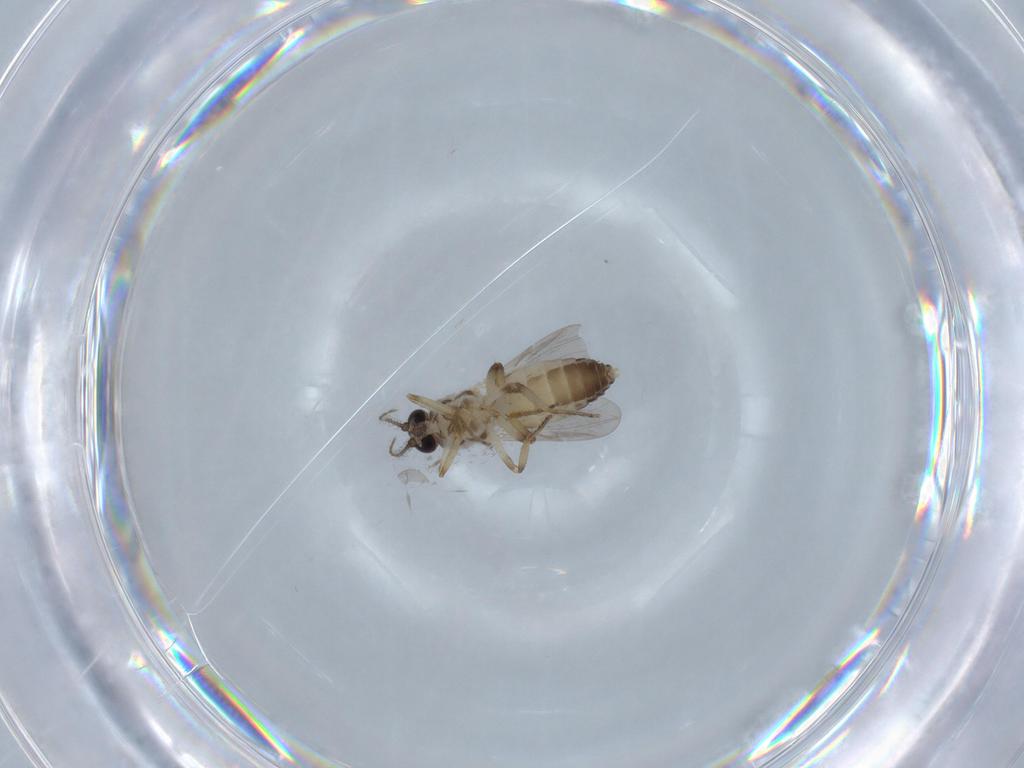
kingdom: Animalia
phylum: Arthropoda
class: Insecta
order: Diptera
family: Ceratopogonidae
